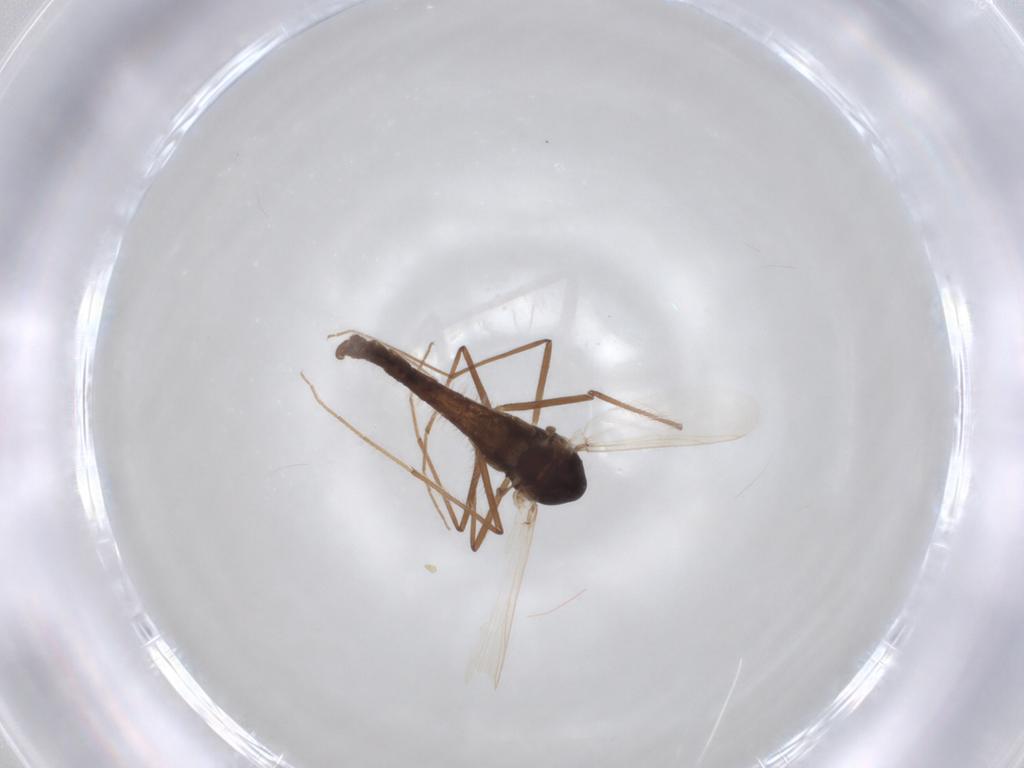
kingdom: Animalia
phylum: Arthropoda
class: Insecta
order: Diptera
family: Chironomidae
